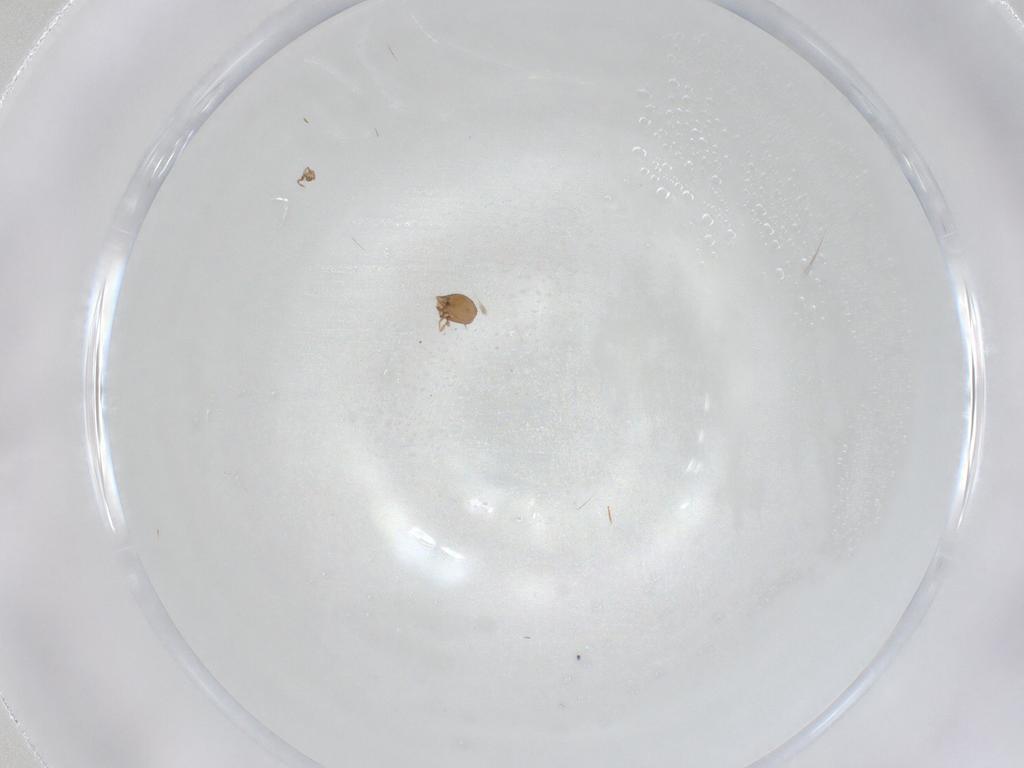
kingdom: Animalia
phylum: Arthropoda
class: Arachnida
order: Sarcoptiformes
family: Oribatulidae
